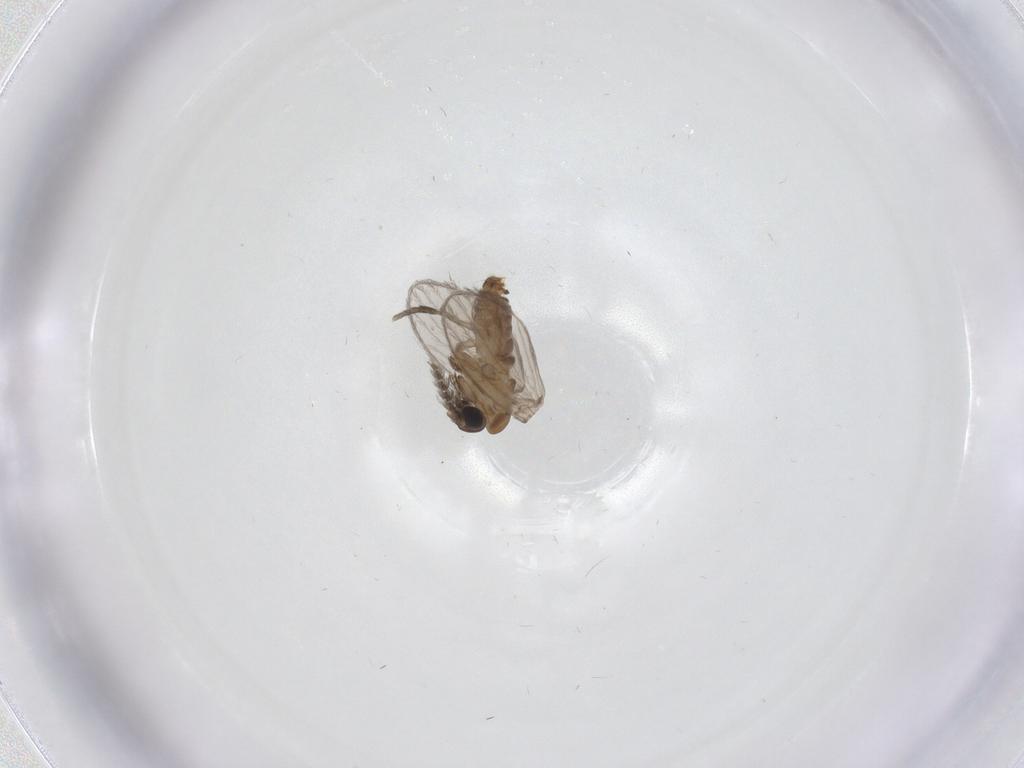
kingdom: Animalia
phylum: Arthropoda
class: Insecta
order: Diptera
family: Psychodidae
